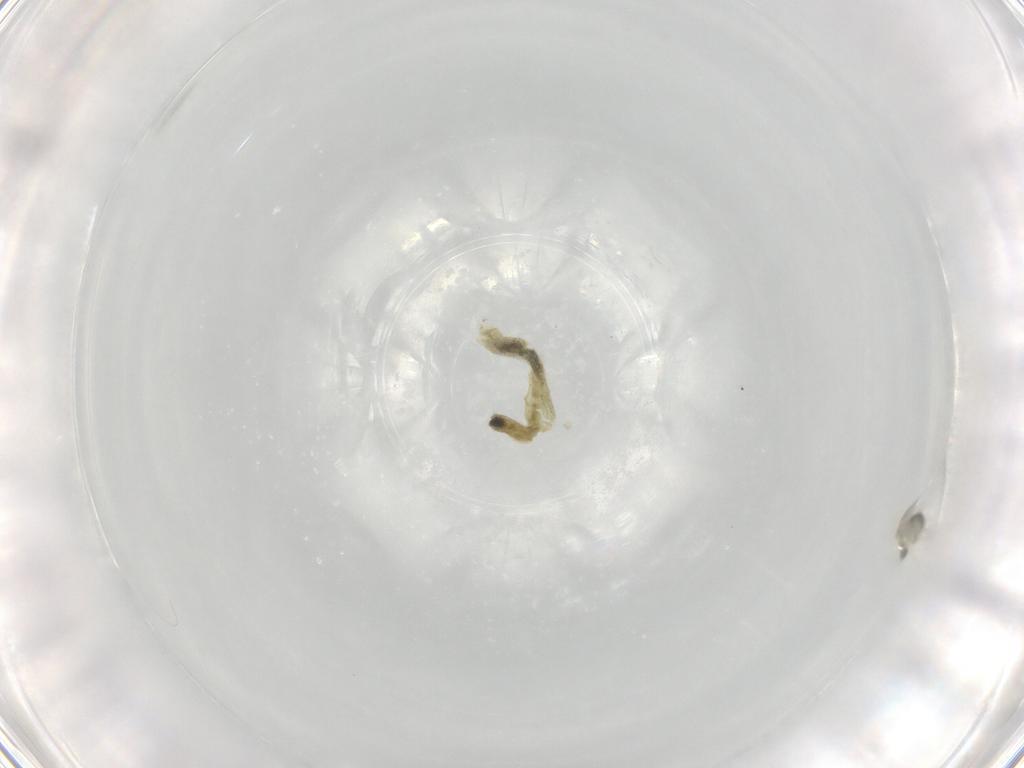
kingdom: Animalia
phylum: Arthropoda
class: Insecta
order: Diptera
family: Chironomidae
